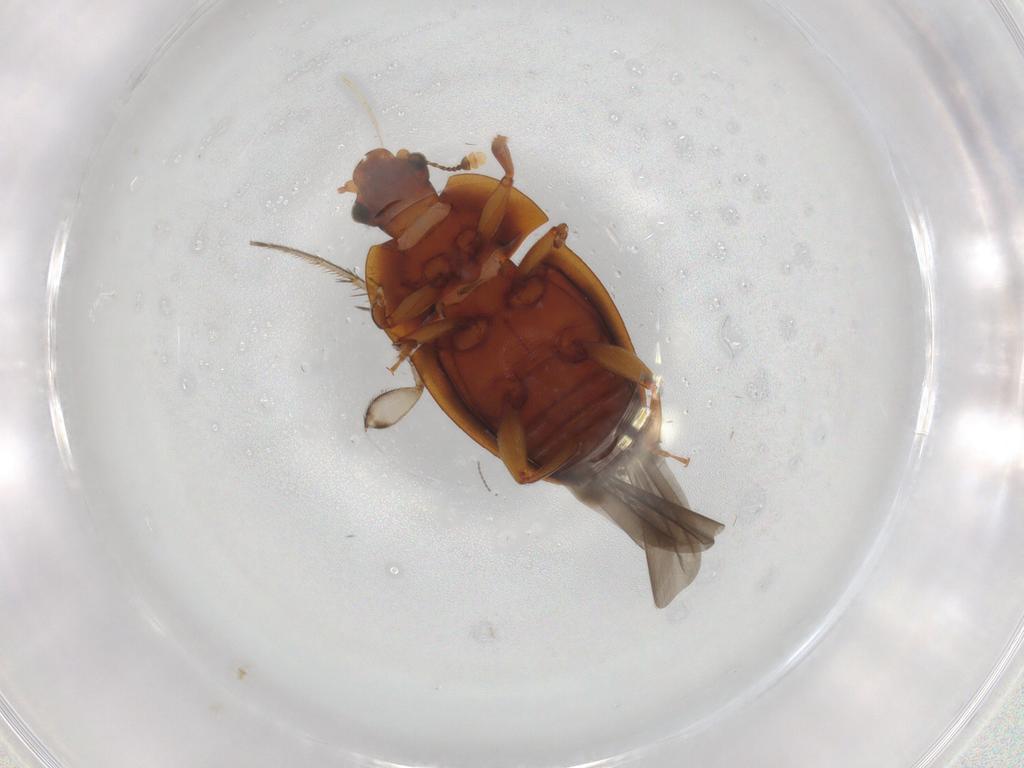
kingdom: Animalia
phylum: Arthropoda
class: Insecta
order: Coleoptera
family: Nitidulidae
